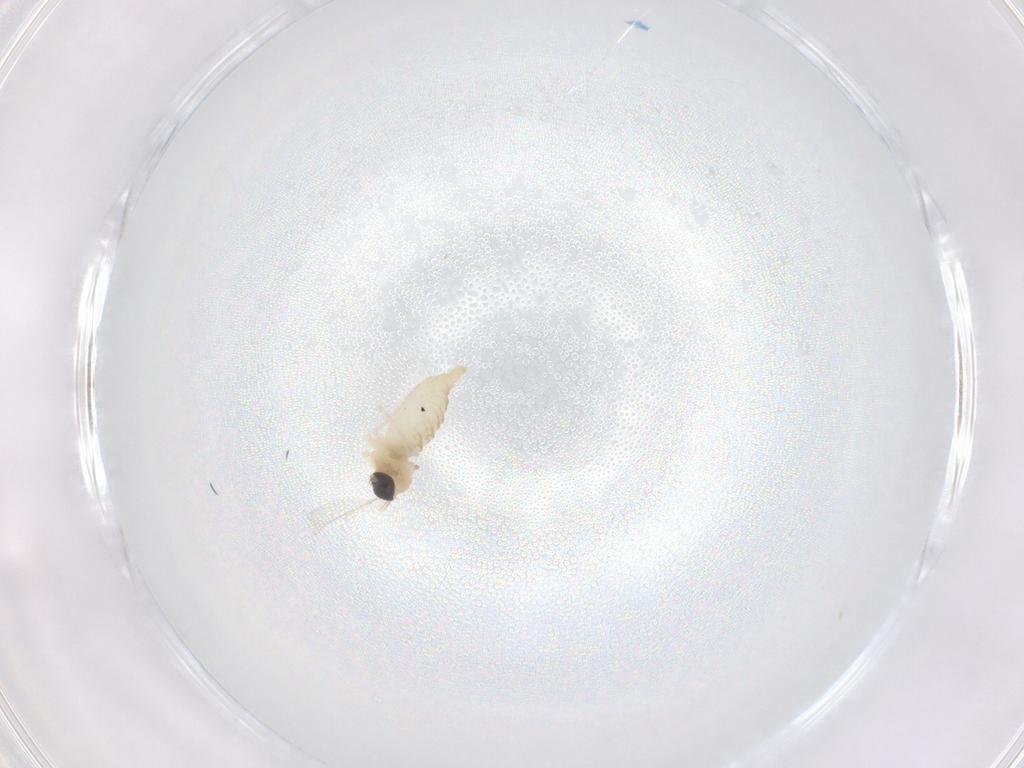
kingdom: Animalia
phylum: Arthropoda
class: Insecta
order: Diptera
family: Cecidomyiidae
